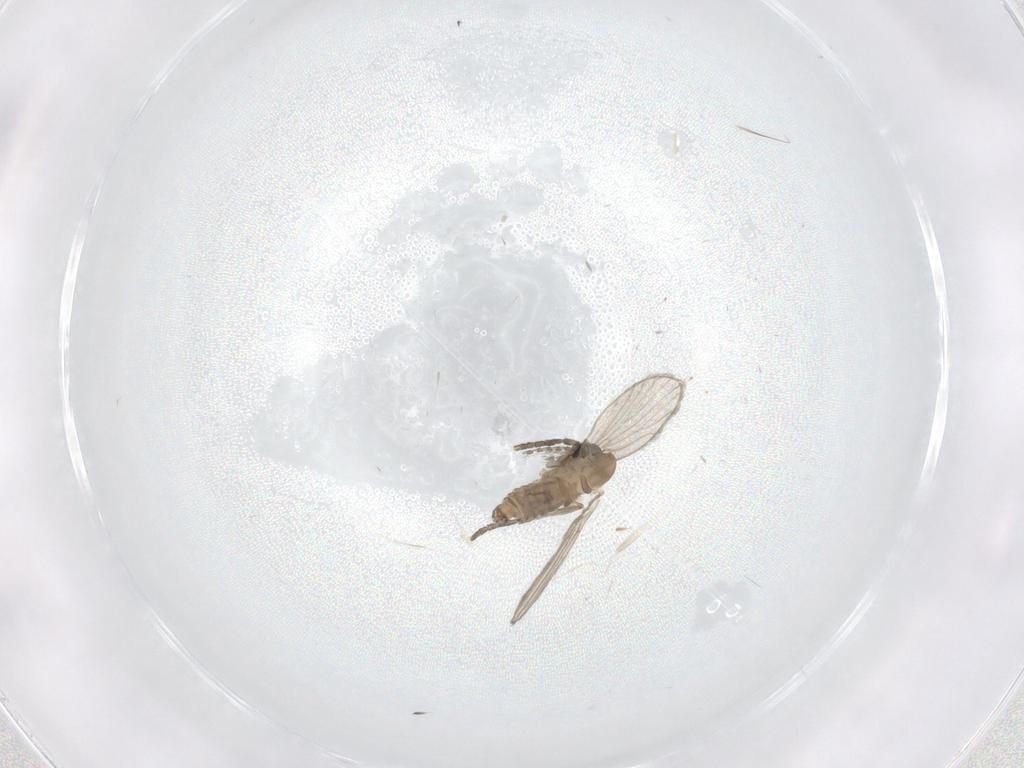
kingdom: Animalia
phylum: Arthropoda
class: Insecta
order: Diptera
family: Psychodidae
